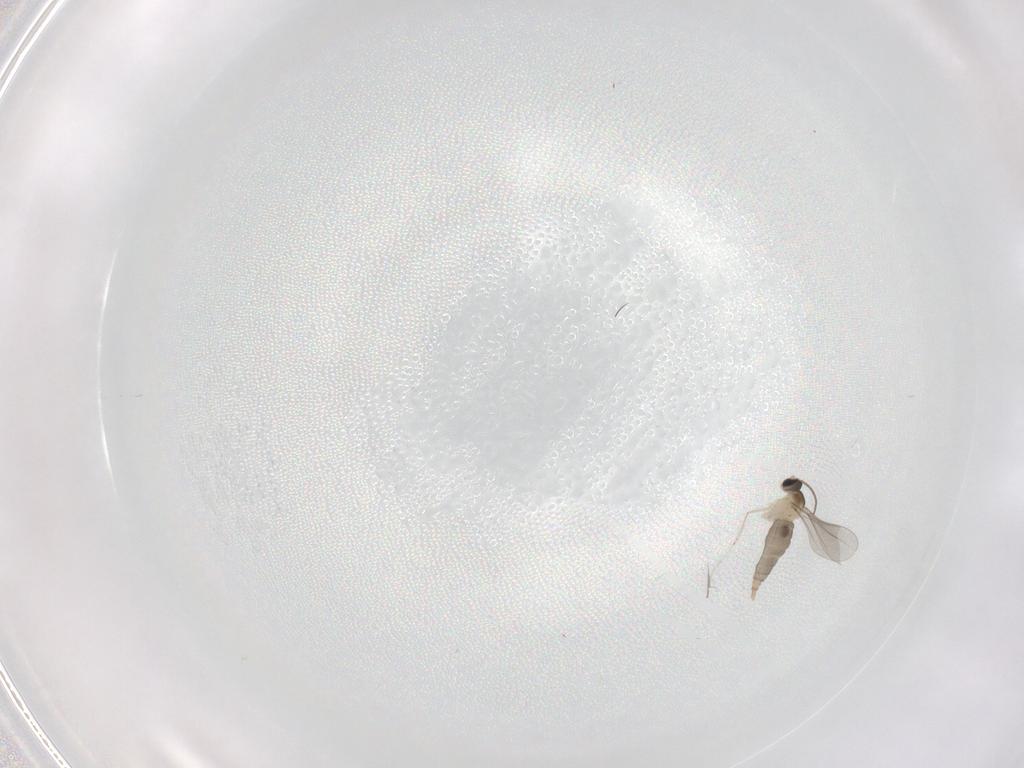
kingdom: Animalia
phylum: Arthropoda
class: Insecta
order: Diptera
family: Cecidomyiidae
